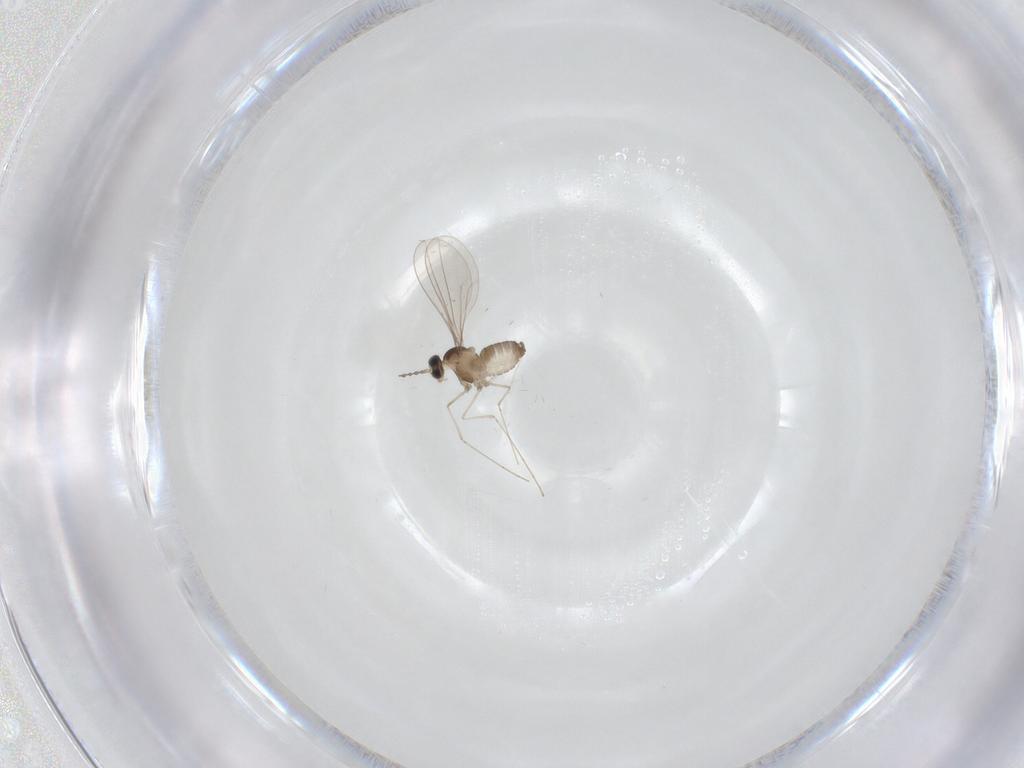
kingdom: Animalia
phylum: Arthropoda
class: Insecta
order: Diptera
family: Cecidomyiidae
